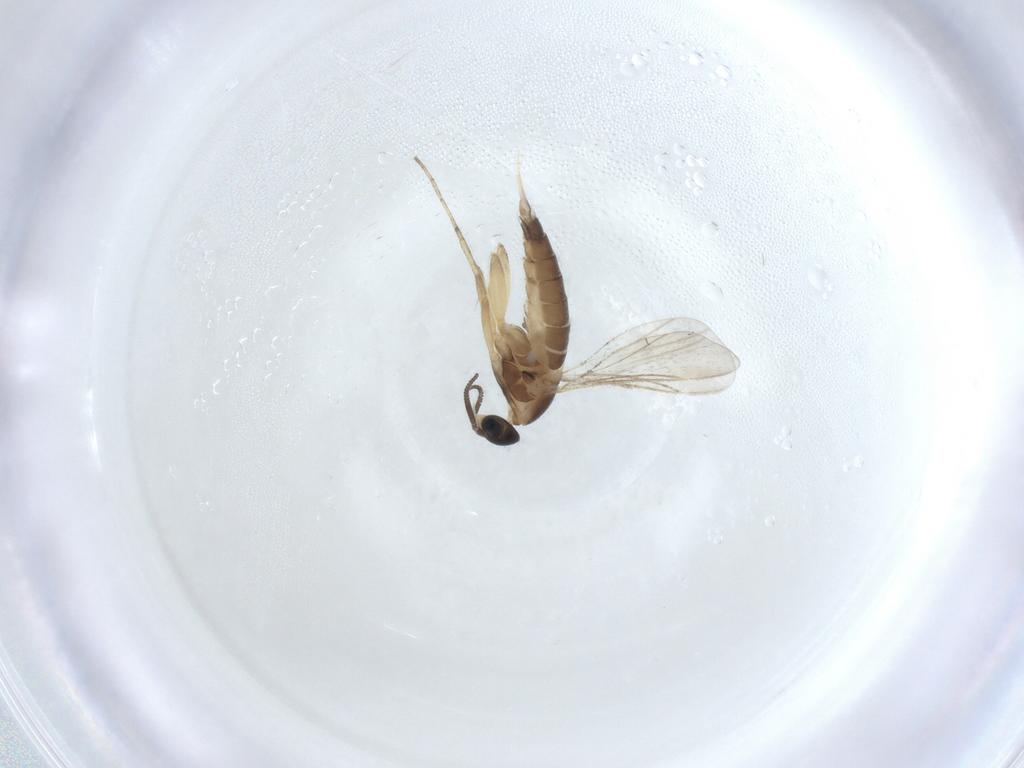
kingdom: Animalia
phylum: Arthropoda
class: Insecta
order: Diptera
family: Cecidomyiidae
